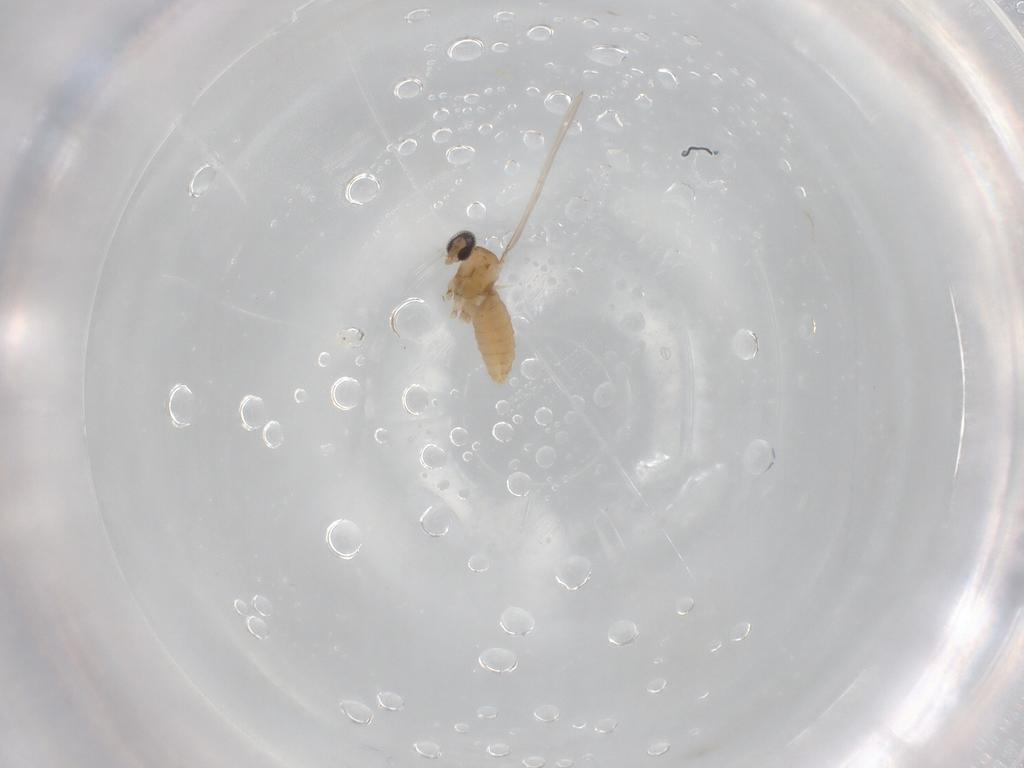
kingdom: Animalia
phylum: Arthropoda
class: Insecta
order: Diptera
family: Cecidomyiidae
